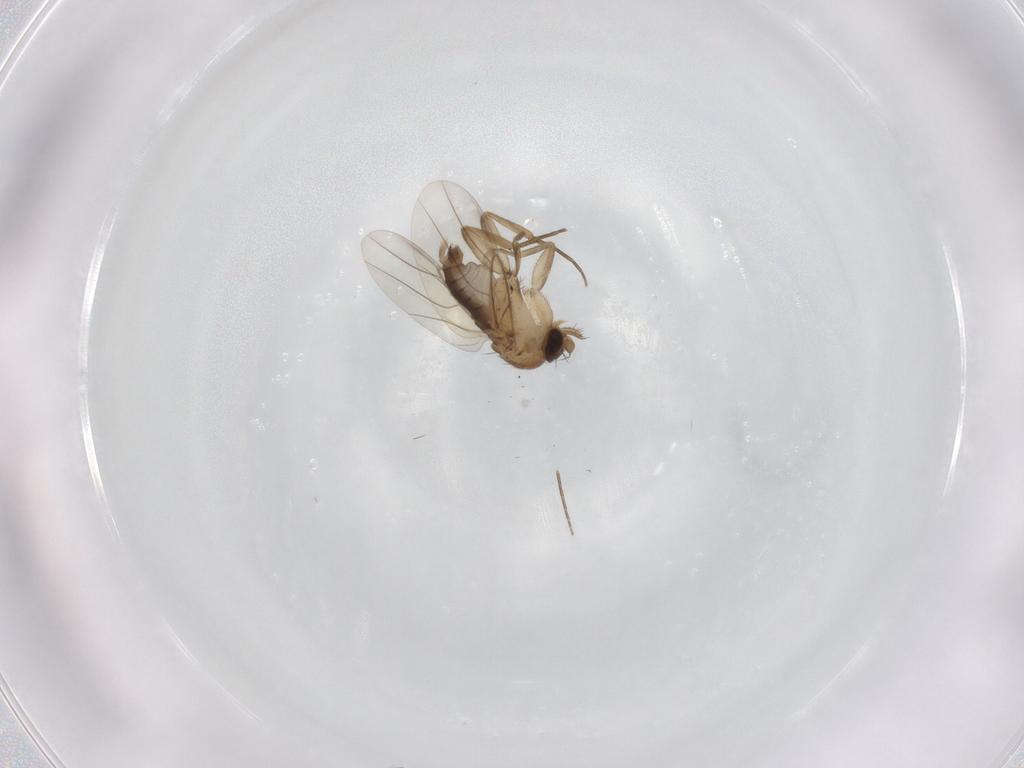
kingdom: Animalia
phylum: Arthropoda
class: Insecta
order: Diptera
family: Phoridae
